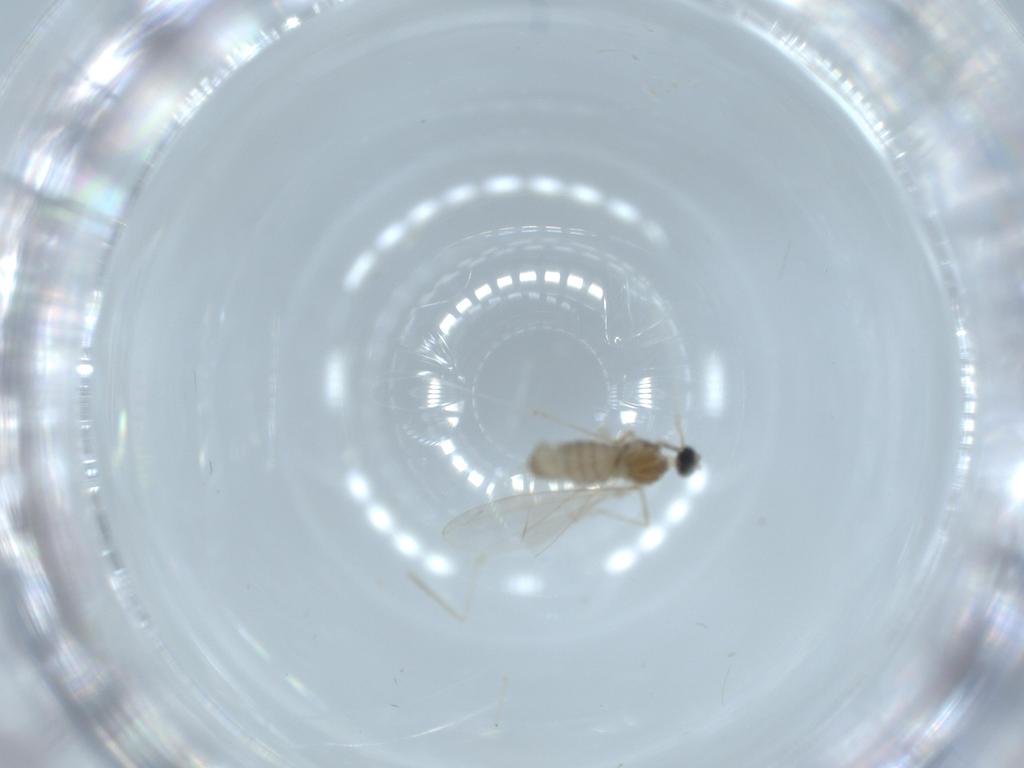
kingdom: Animalia
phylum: Arthropoda
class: Insecta
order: Diptera
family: Cecidomyiidae
